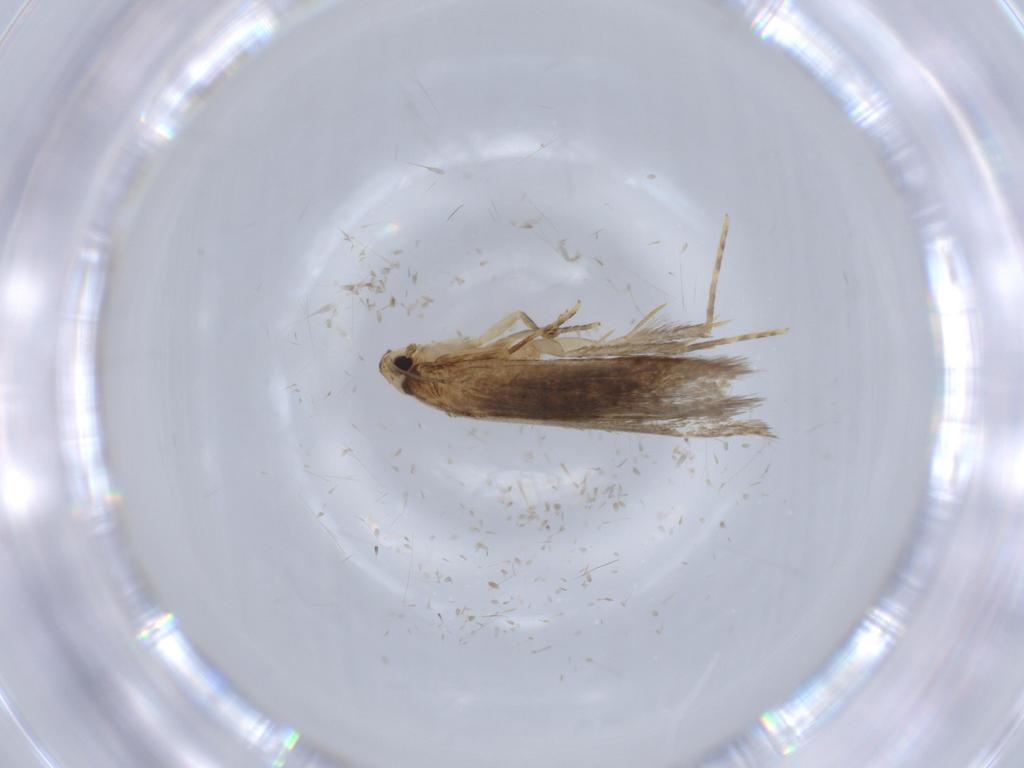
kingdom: Animalia
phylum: Arthropoda
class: Insecta
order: Lepidoptera
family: Tineidae
